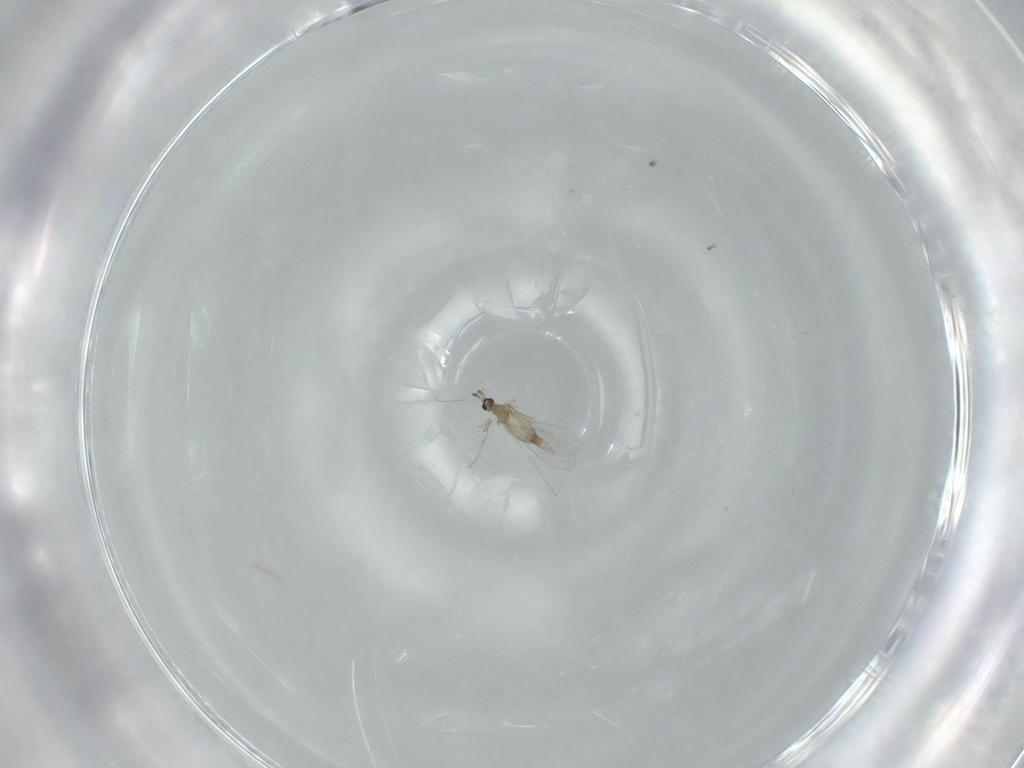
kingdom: Animalia
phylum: Arthropoda
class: Insecta
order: Diptera
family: Cecidomyiidae
